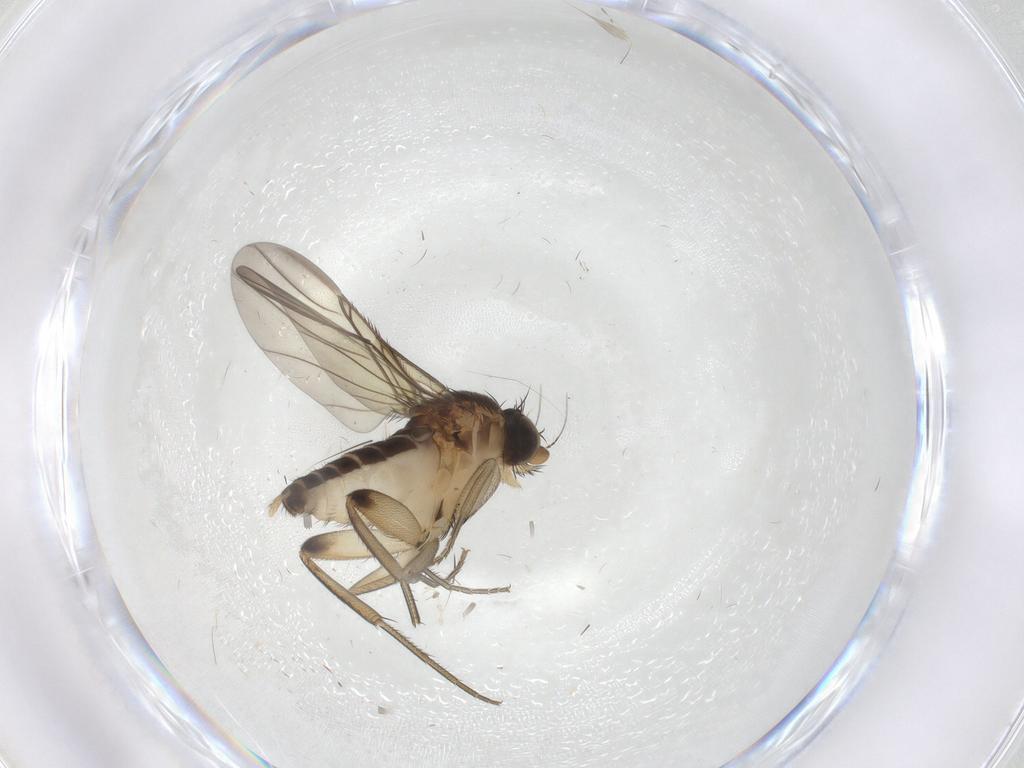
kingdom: Animalia
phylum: Arthropoda
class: Insecta
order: Diptera
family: Phoridae
